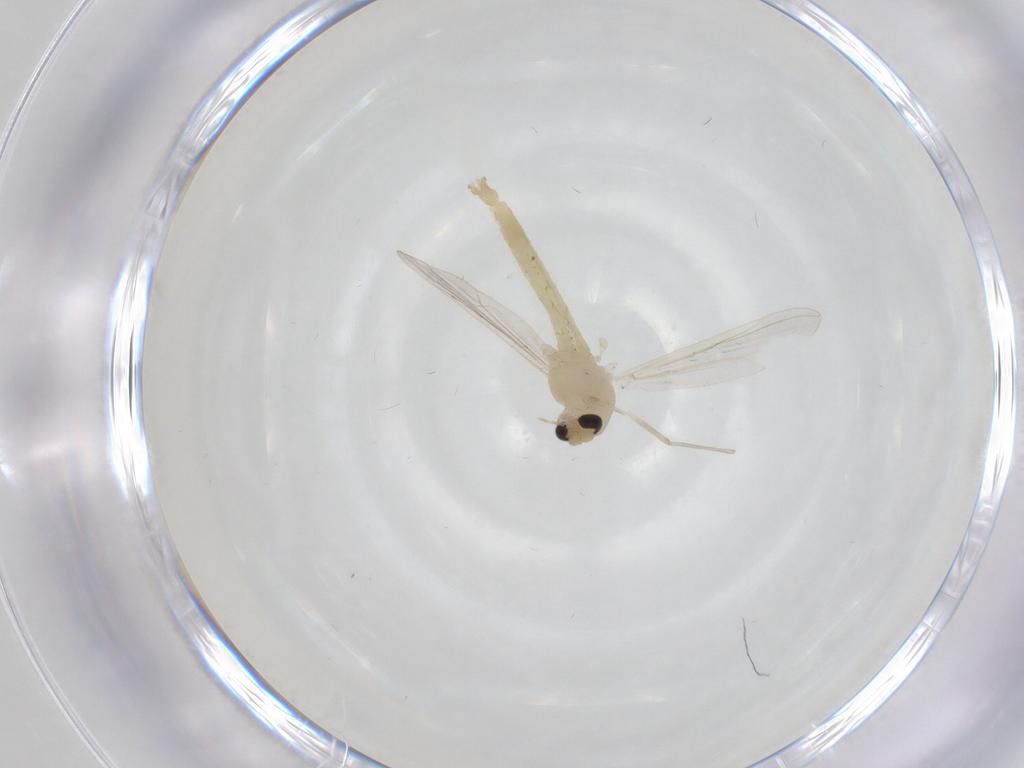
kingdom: Animalia
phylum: Arthropoda
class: Insecta
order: Diptera
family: Chironomidae
